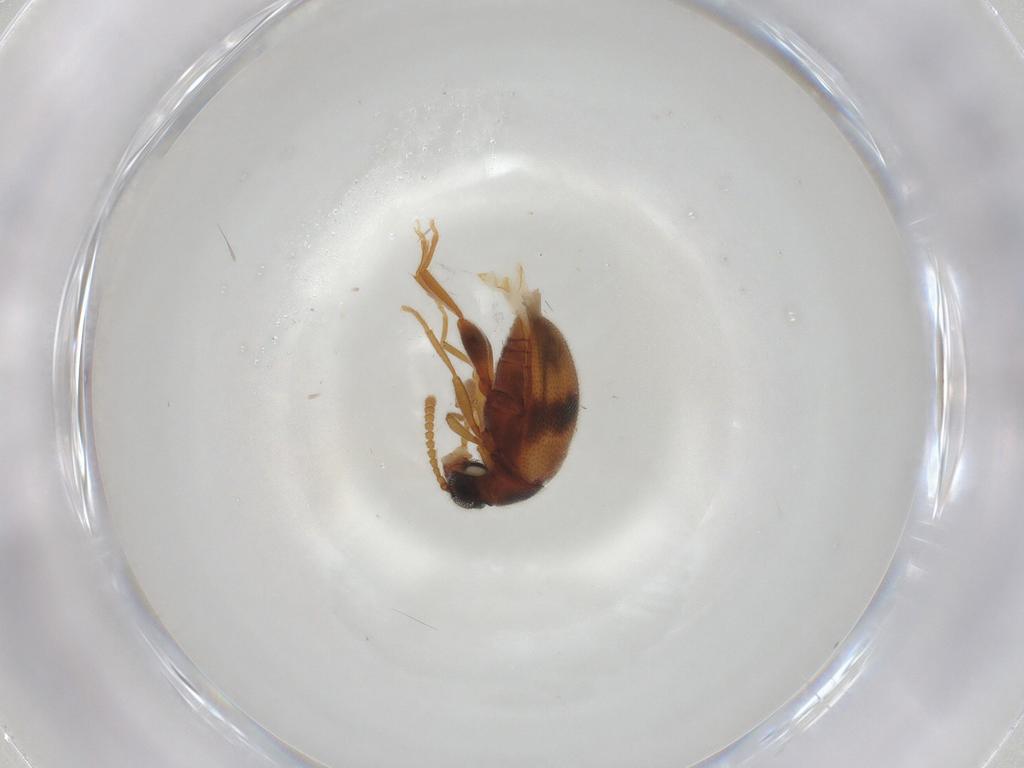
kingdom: Animalia
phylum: Arthropoda
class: Insecta
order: Coleoptera
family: Aderidae
